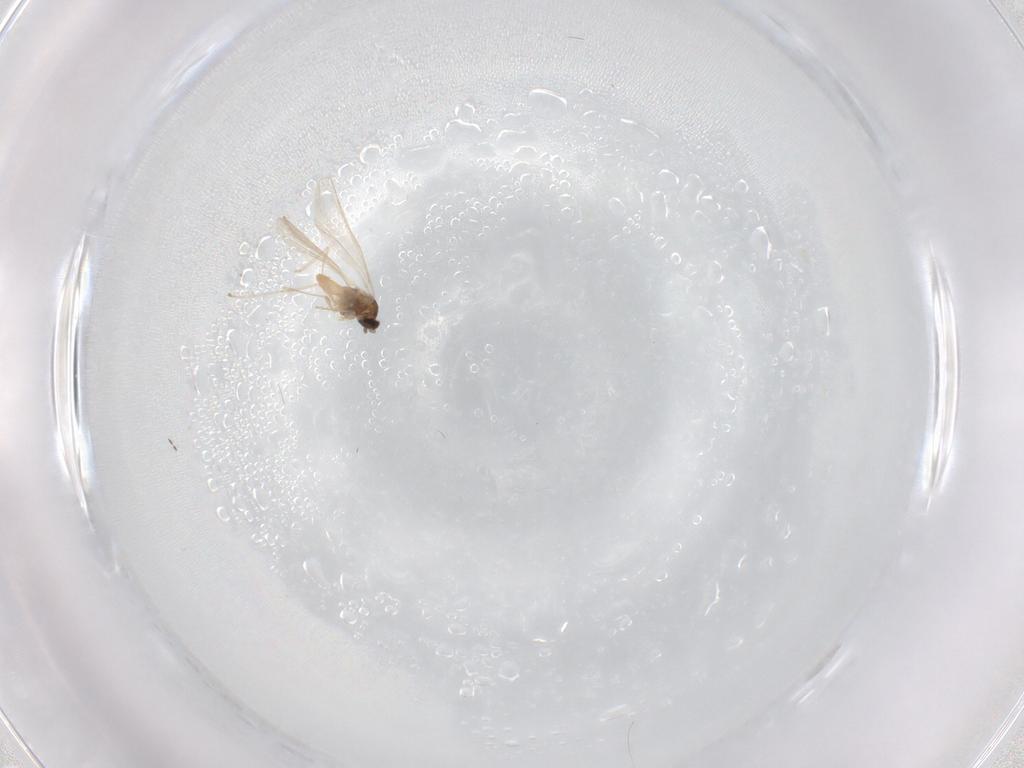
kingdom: Animalia
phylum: Arthropoda
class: Insecta
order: Diptera
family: Cecidomyiidae
